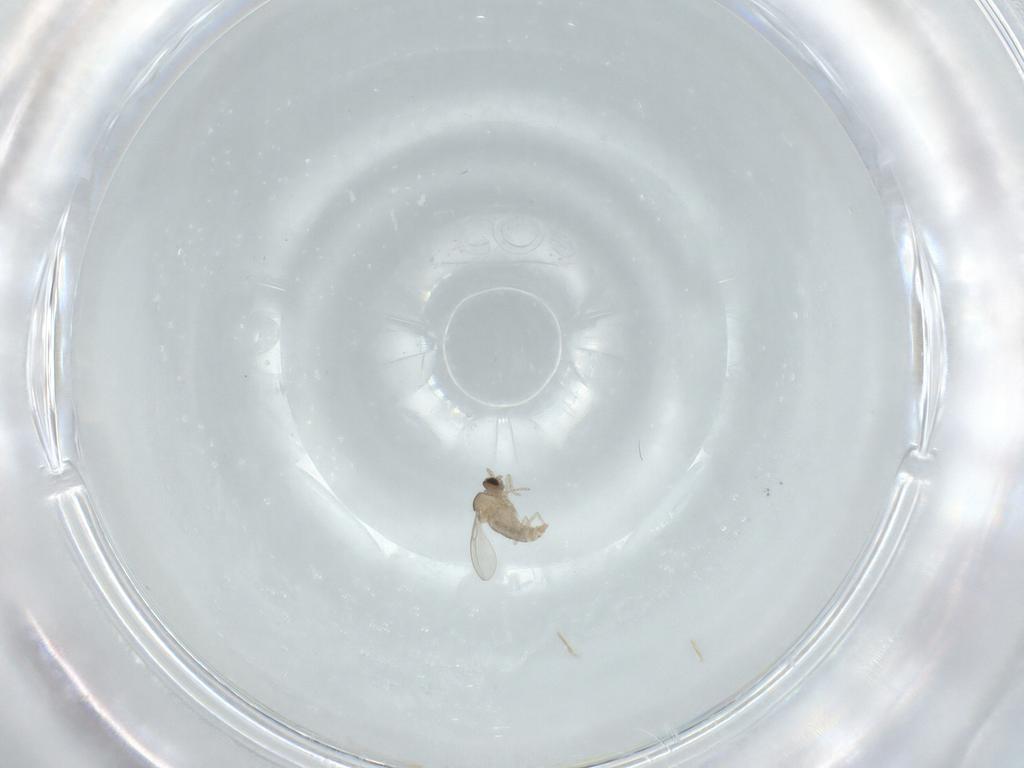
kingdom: Animalia
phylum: Arthropoda
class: Insecta
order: Diptera
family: Cecidomyiidae
